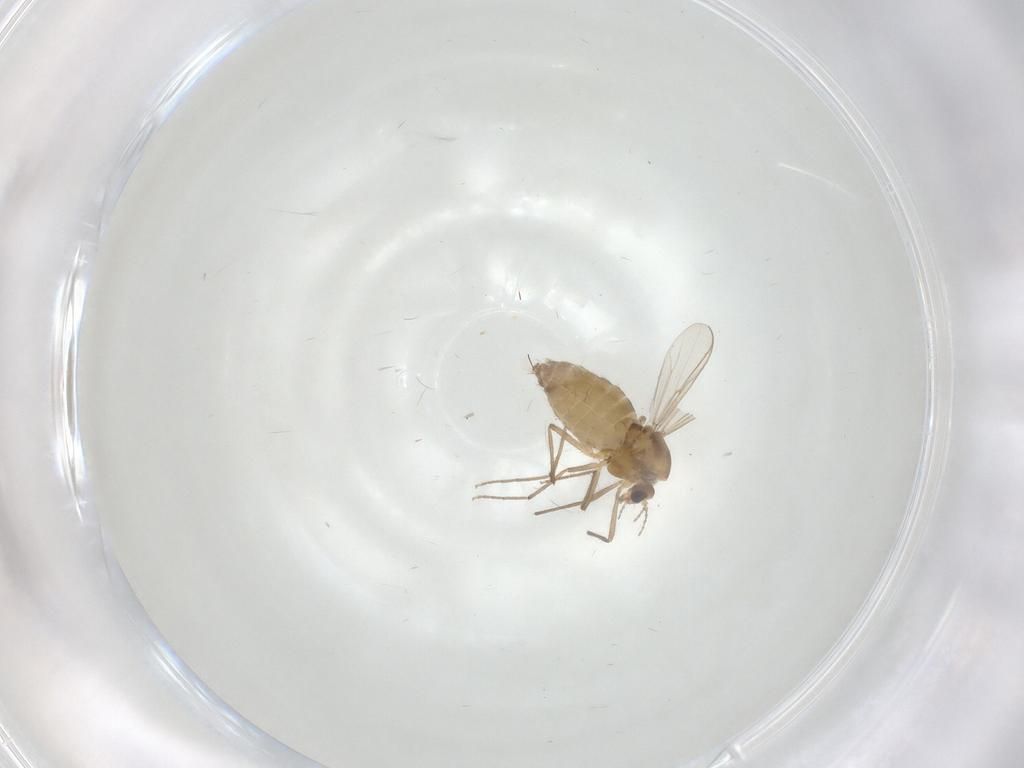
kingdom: Animalia
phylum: Arthropoda
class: Insecta
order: Diptera
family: Chironomidae
